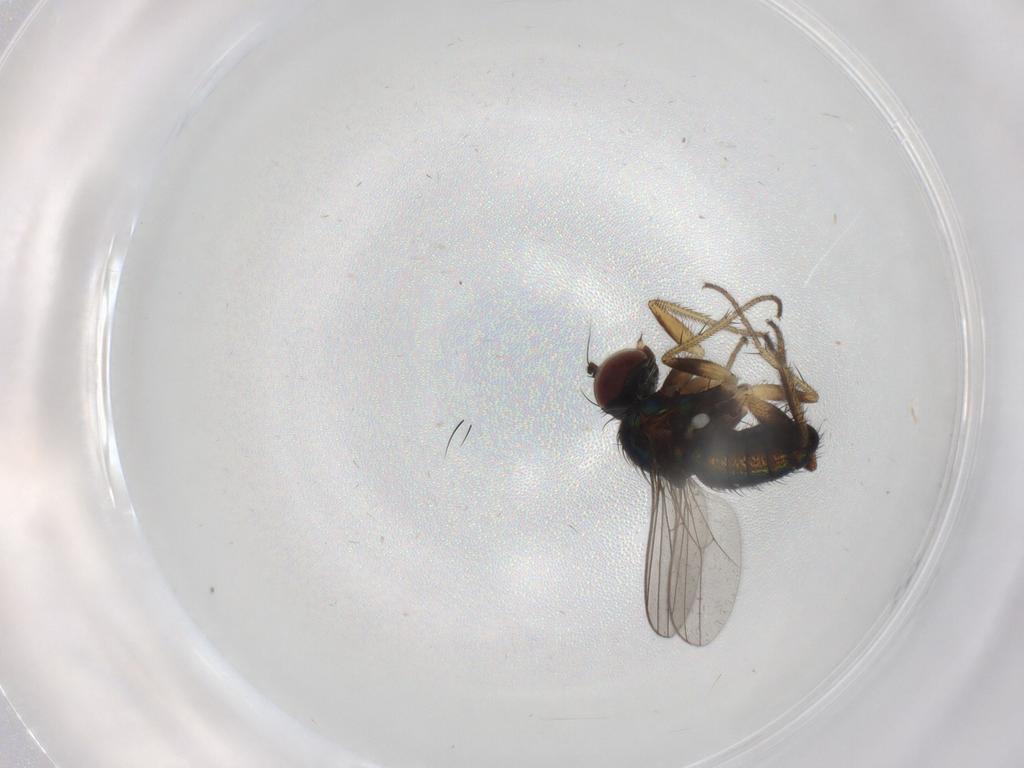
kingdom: Animalia
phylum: Arthropoda
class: Insecta
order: Diptera
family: Dolichopodidae
